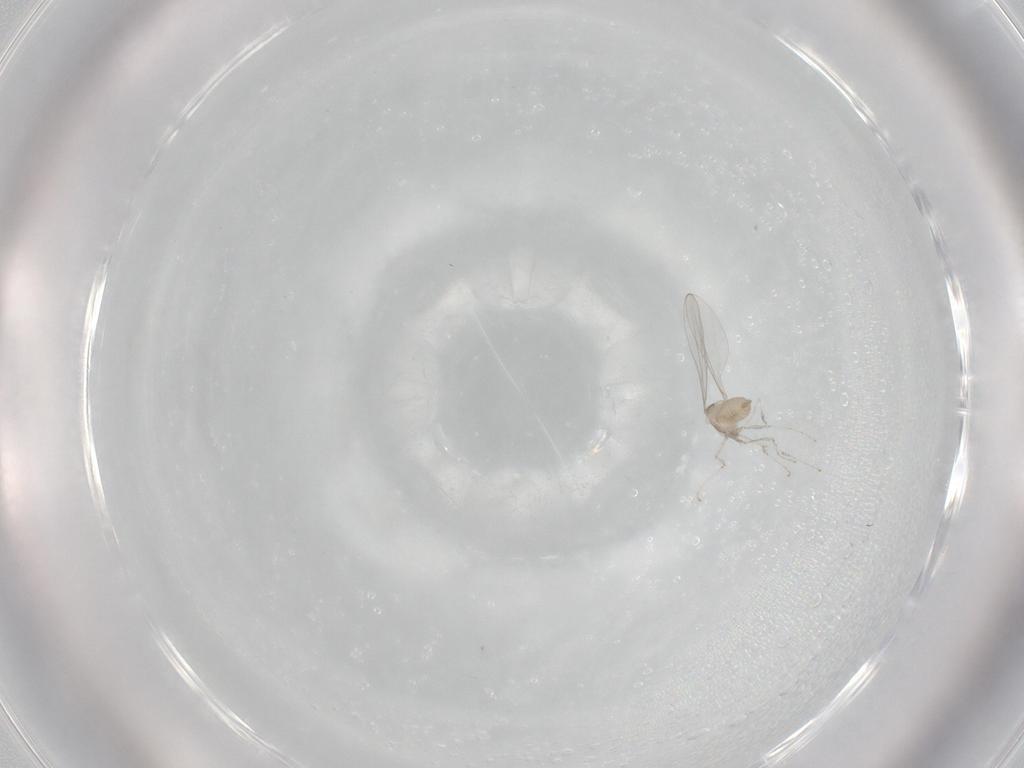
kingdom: Animalia
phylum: Arthropoda
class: Insecta
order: Diptera
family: Cecidomyiidae
